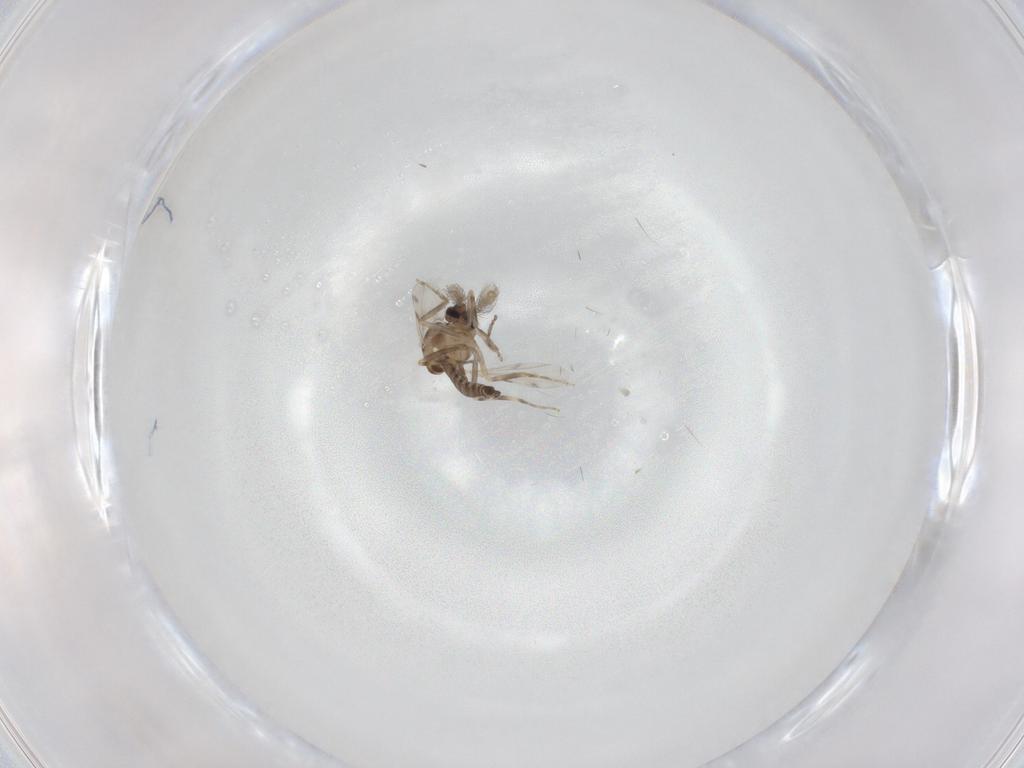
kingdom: Animalia
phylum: Arthropoda
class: Insecta
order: Diptera
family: Ceratopogonidae
